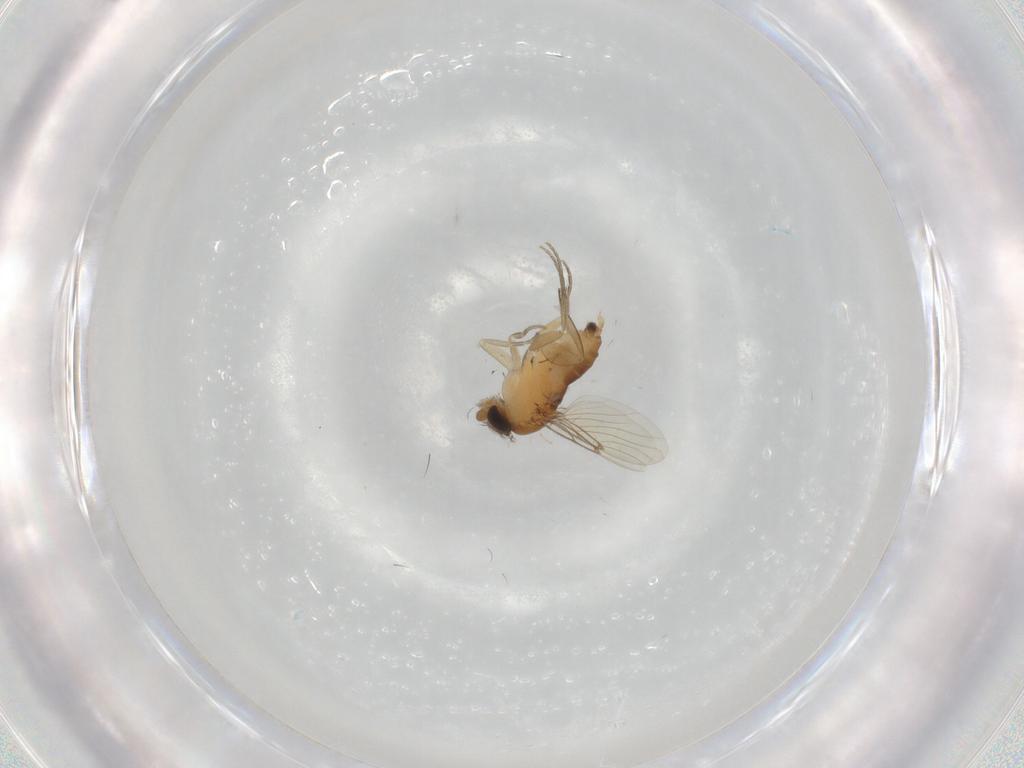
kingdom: Animalia
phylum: Arthropoda
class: Insecta
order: Diptera
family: Phoridae
